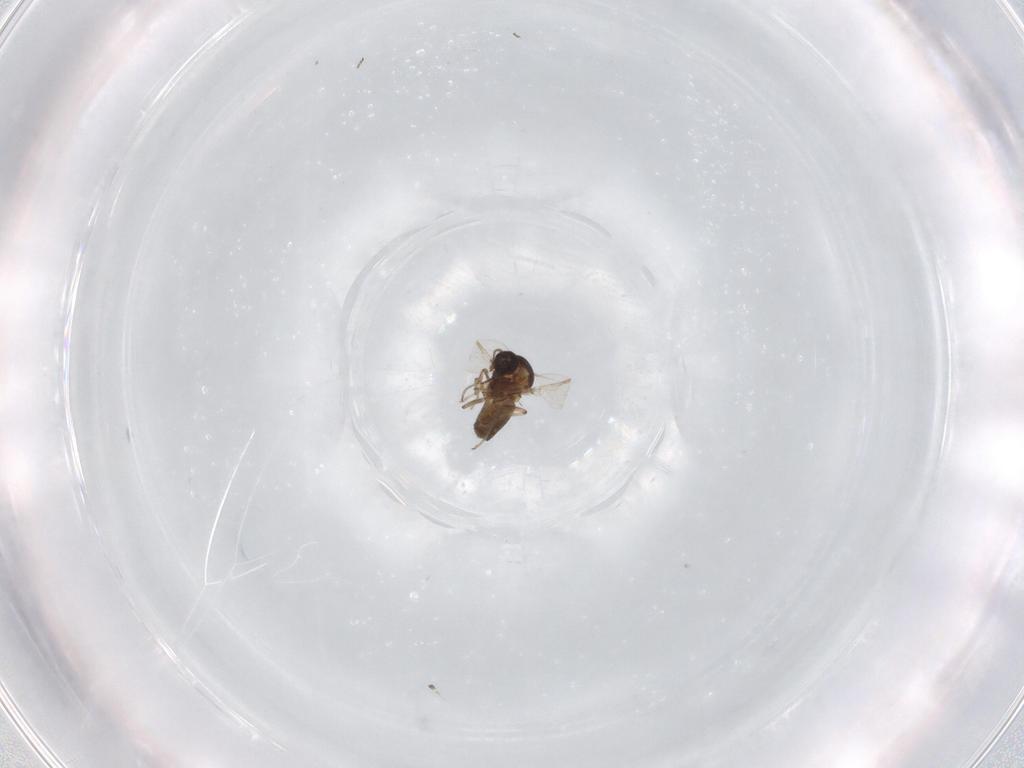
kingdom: Animalia
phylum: Arthropoda
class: Insecta
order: Diptera
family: Ceratopogonidae
